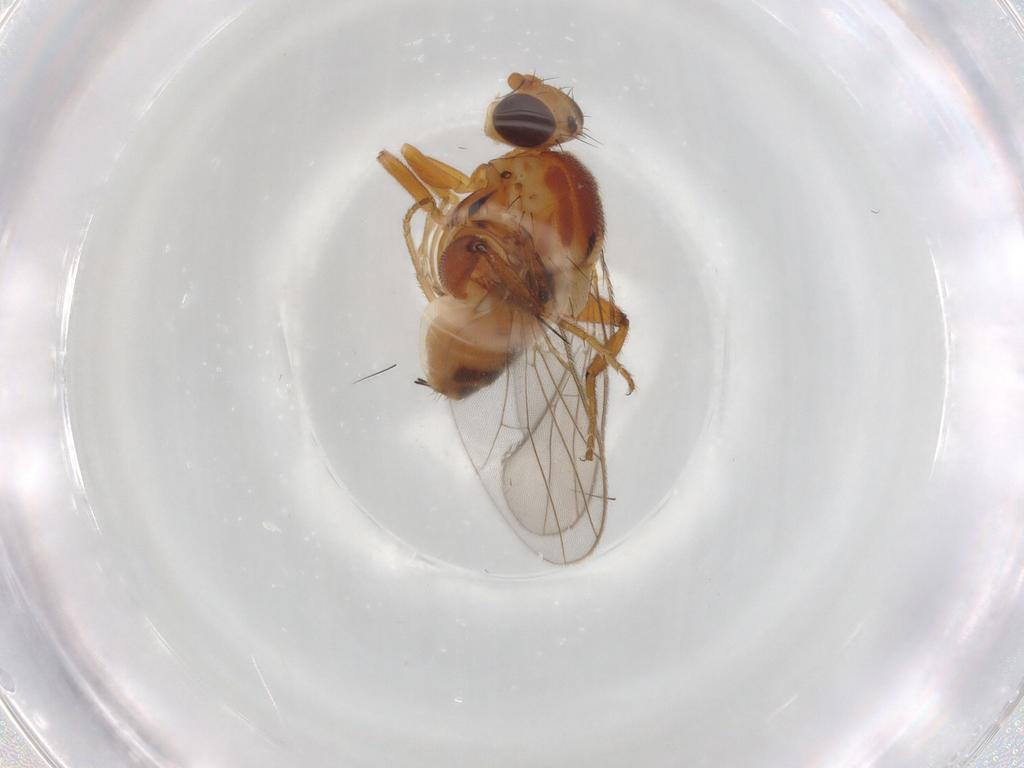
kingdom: Animalia
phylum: Arthropoda
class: Insecta
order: Diptera
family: Chloropidae
